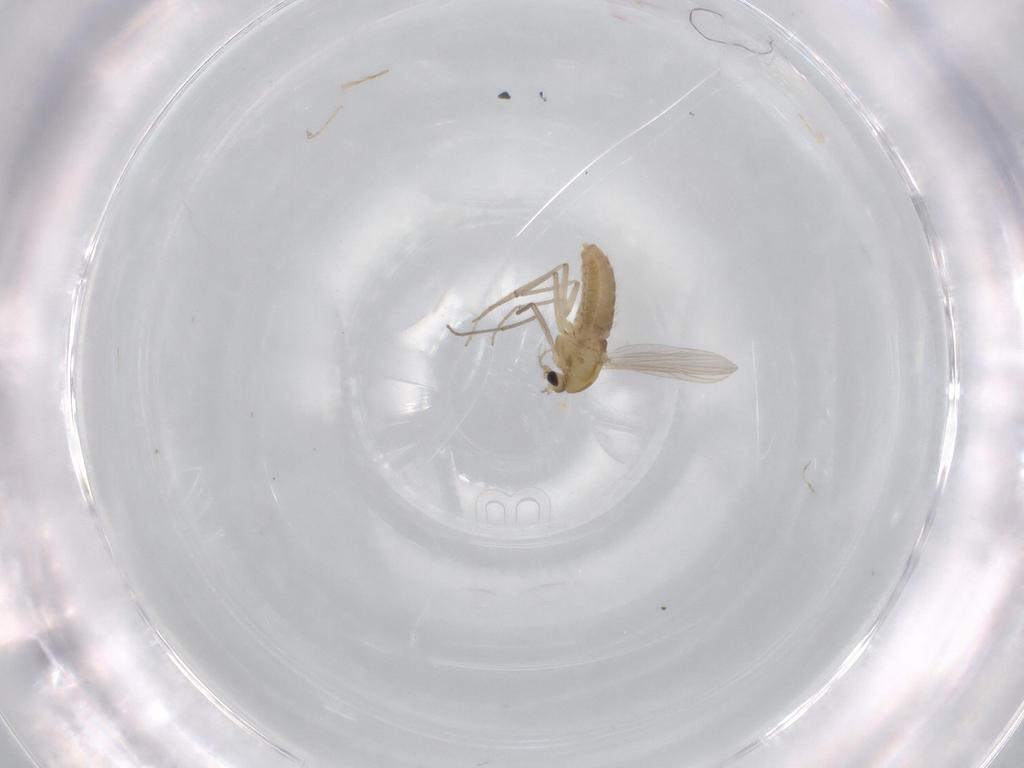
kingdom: Animalia
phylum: Arthropoda
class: Insecta
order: Diptera
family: Chironomidae
